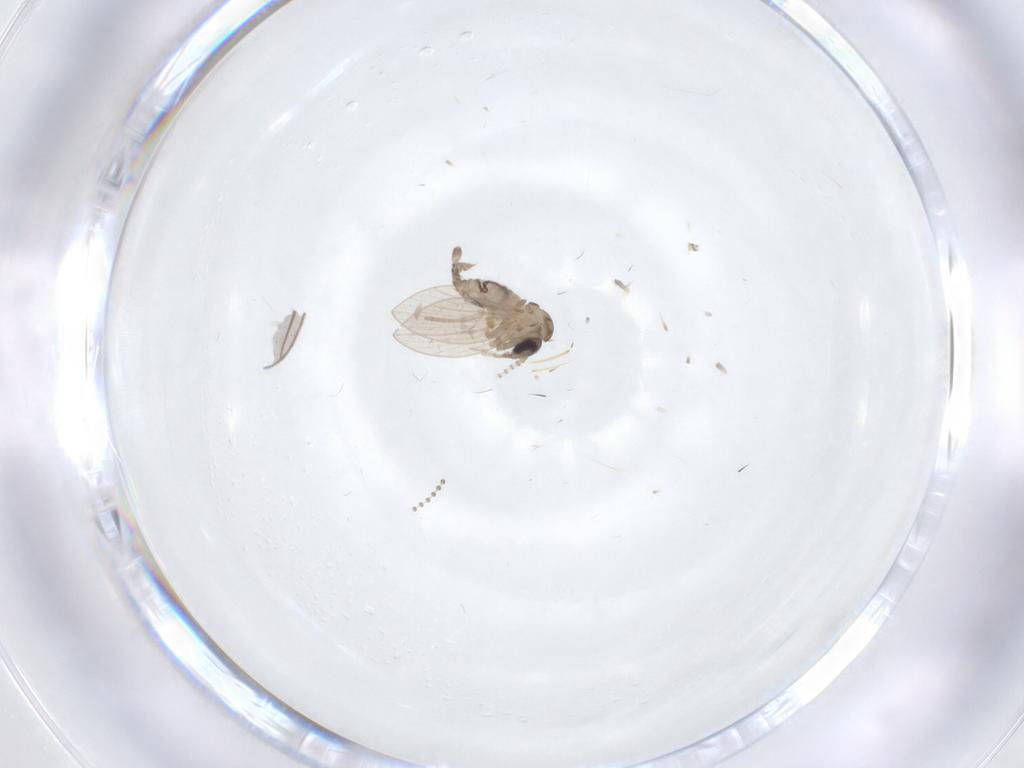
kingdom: Animalia
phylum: Arthropoda
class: Insecta
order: Diptera
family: Psychodidae
